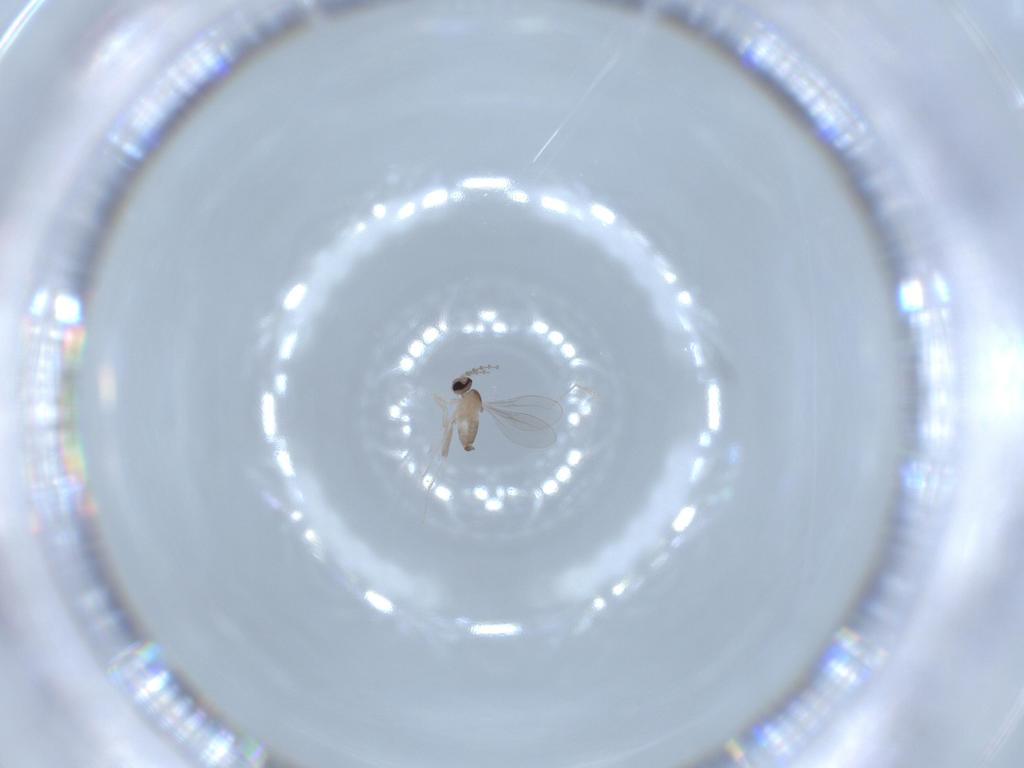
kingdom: Animalia
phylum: Arthropoda
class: Insecta
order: Diptera
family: Cecidomyiidae
